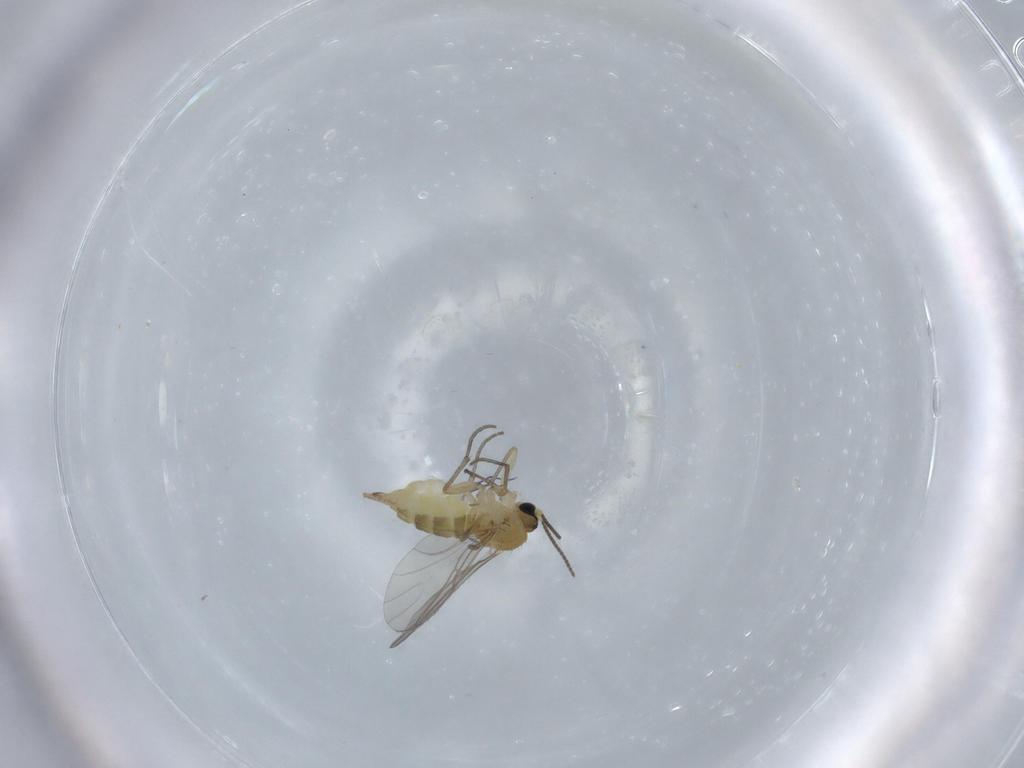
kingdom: Animalia
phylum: Arthropoda
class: Insecta
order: Diptera
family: Sciaridae
